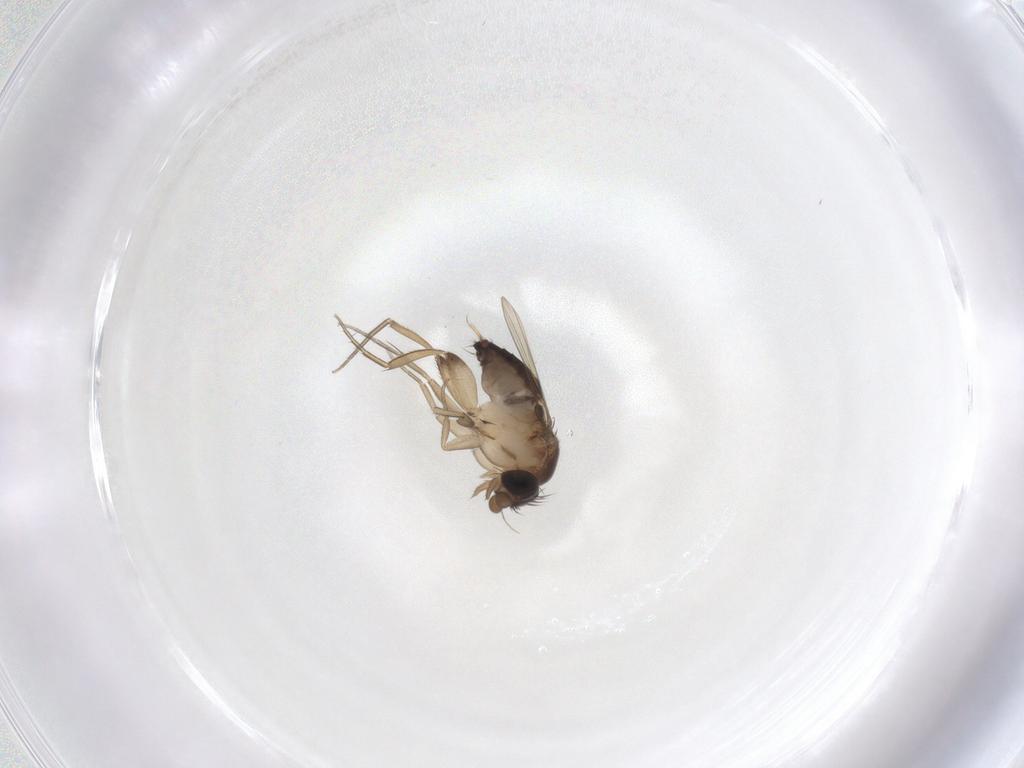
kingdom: Animalia
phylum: Arthropoda
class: Insecta
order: Diptera
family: Phoridae
